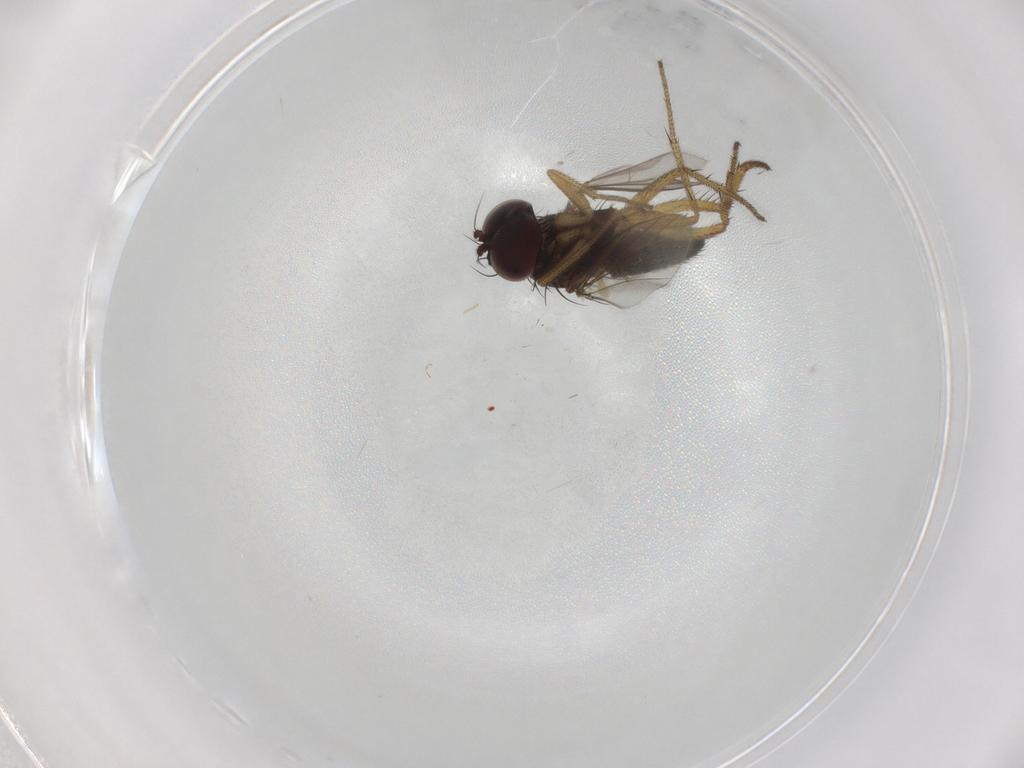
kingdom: Animalia
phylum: Arthropoda
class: Insecta
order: Diptera
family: Dolichopodidae
